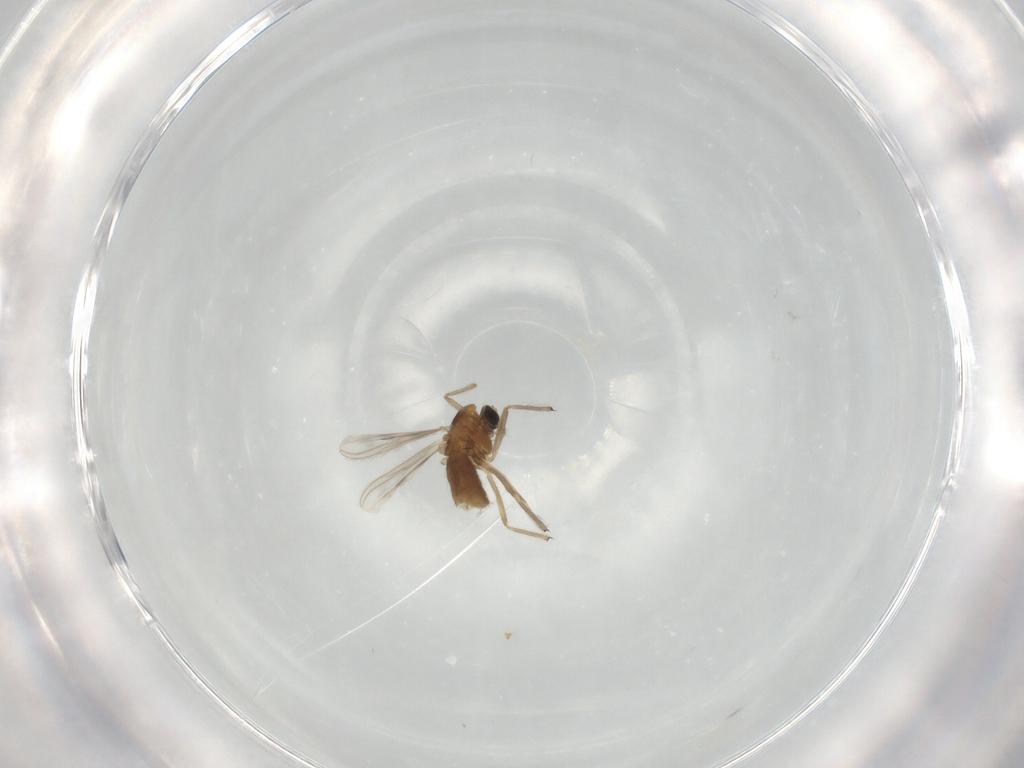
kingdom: Animalia
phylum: Arthropoda
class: Insecta
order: Diptera
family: Chironomidae
